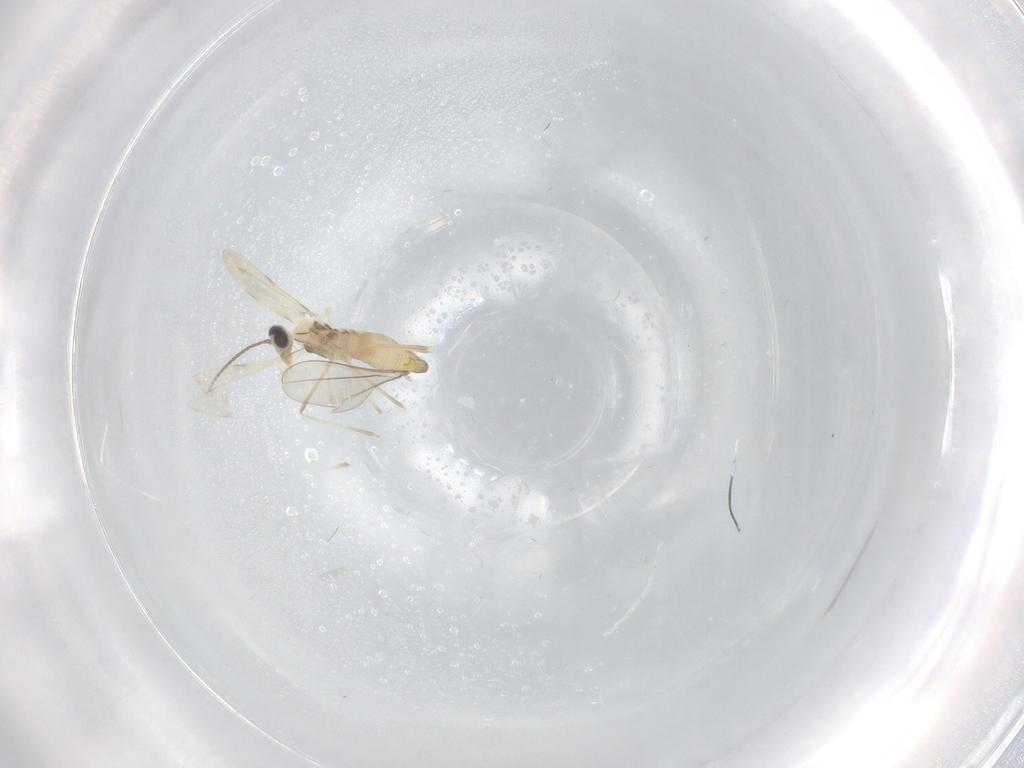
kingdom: Animalia
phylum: Arthropoda
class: Insecta
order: Diptera
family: Cecidomyiidae
